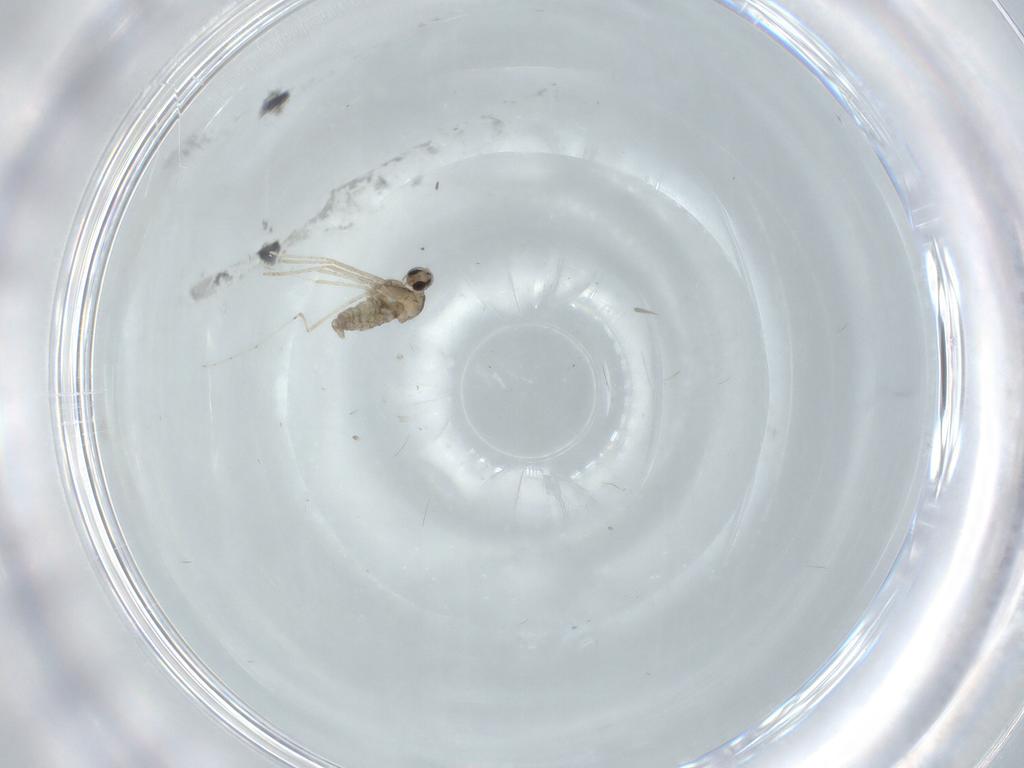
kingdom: Animalia
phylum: Arthropoda
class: Insecta
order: Diptera
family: Cecidomyiidae
